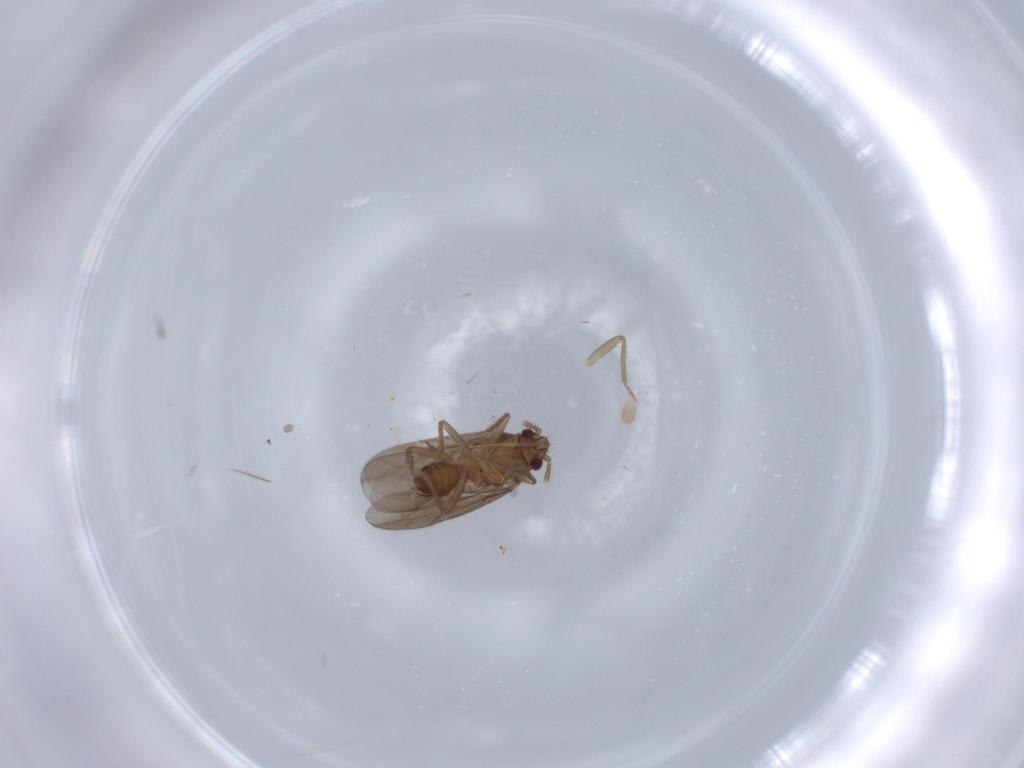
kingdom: Animalia
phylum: Arthropoda
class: Insecta
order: Hemiptera
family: Ceratocombidae
